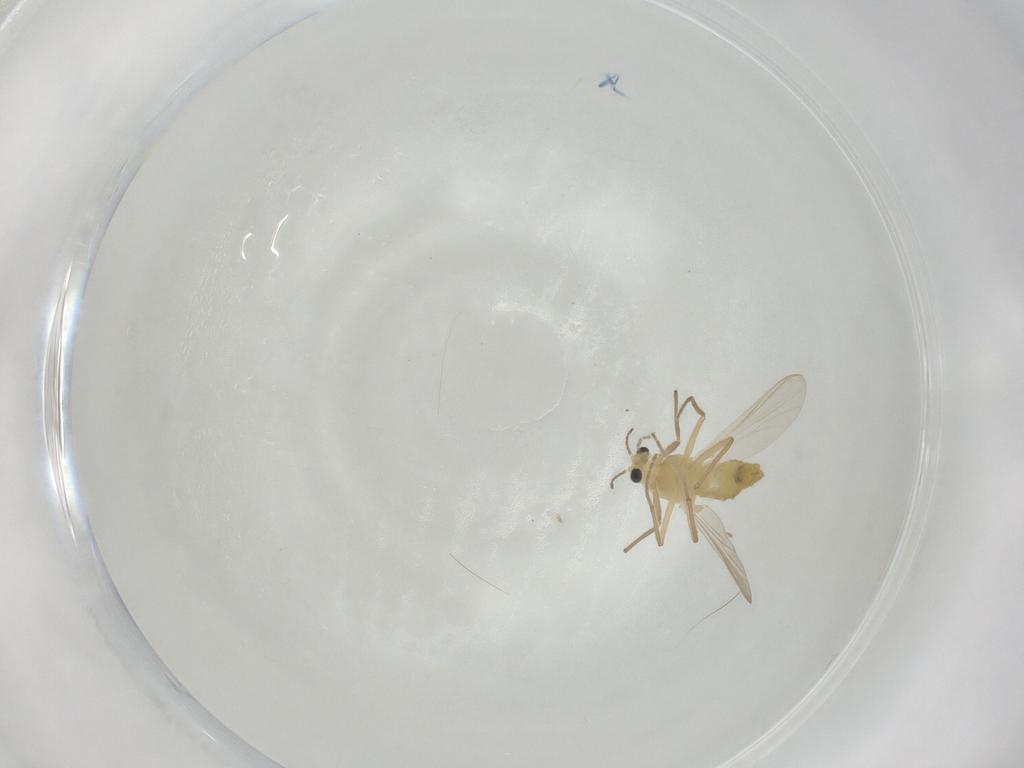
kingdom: Animalia
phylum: Arthropoda
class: Insecta
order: Diptera
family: Chironomidae
